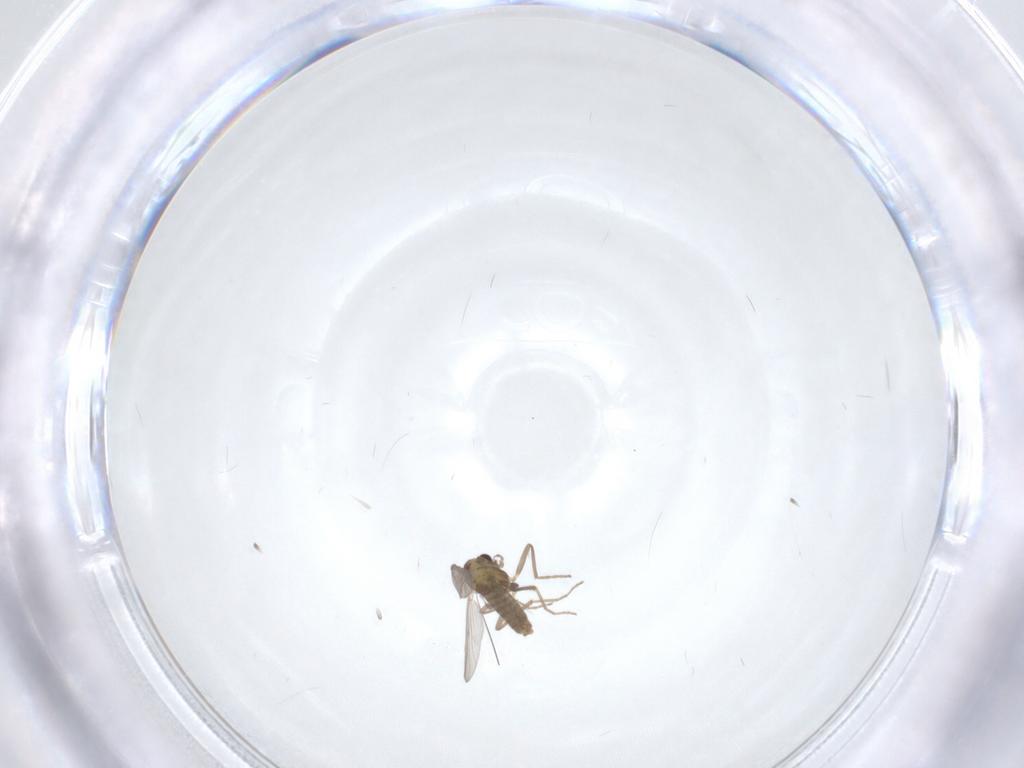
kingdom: Animalia
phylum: Arthropoda
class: Insecta
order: Diptera
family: Chironomidae
